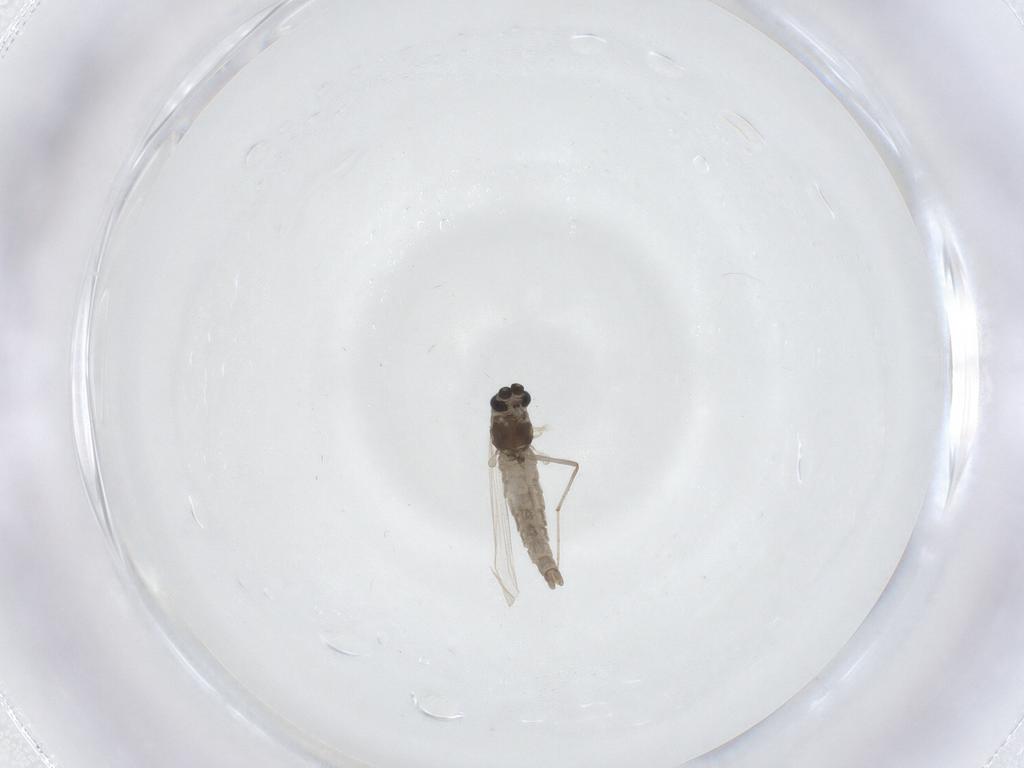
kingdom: Animalia
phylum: Arthropoda
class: Insecta
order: Diptera
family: Chironomidae
